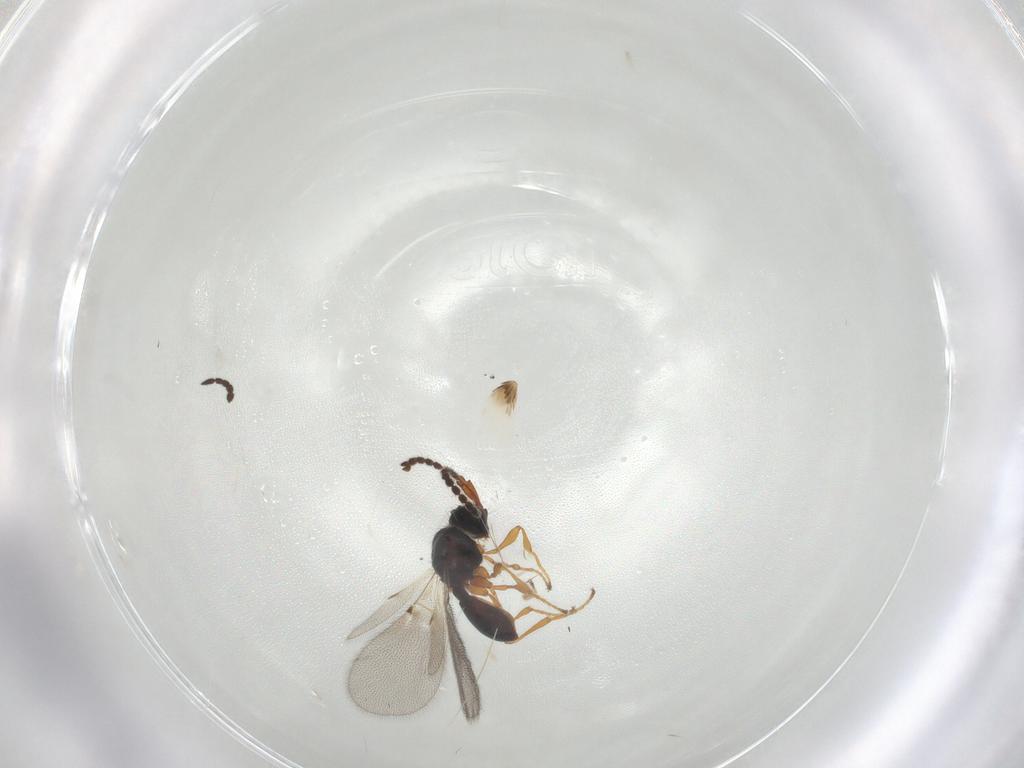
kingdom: Animalia
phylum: Arthropoda
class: Insecta
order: Hymenoptera
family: Diapriidae
